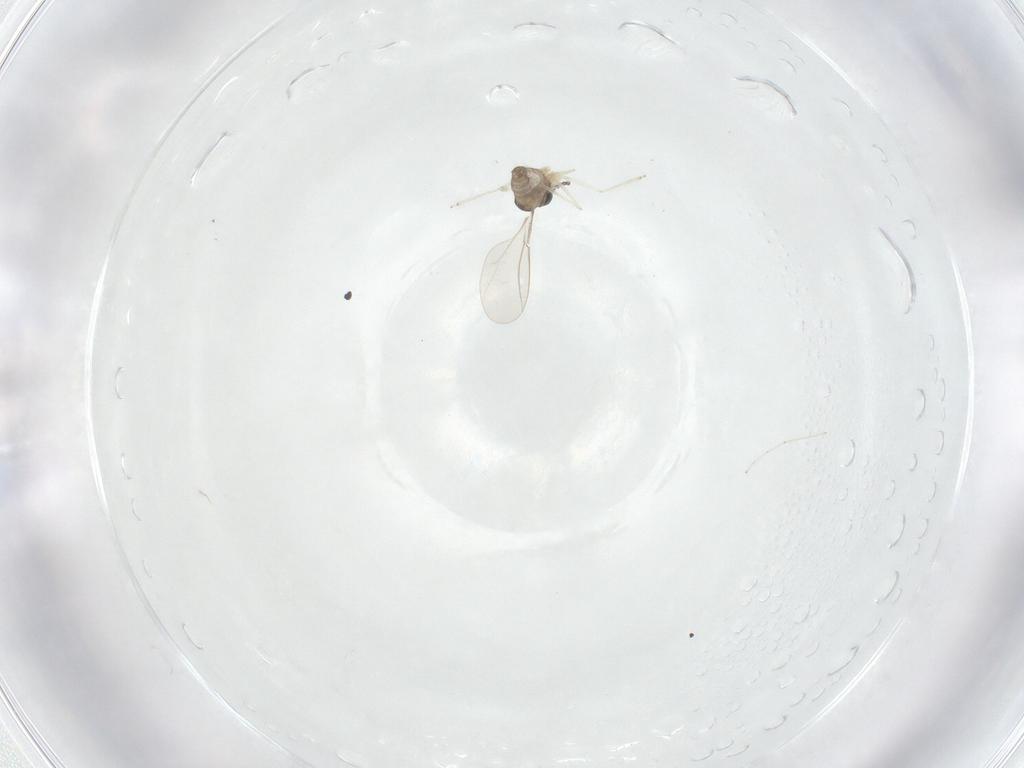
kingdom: Animalia
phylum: Arthropoda
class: Insecta
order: Diptera
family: Cecidomyiidae
